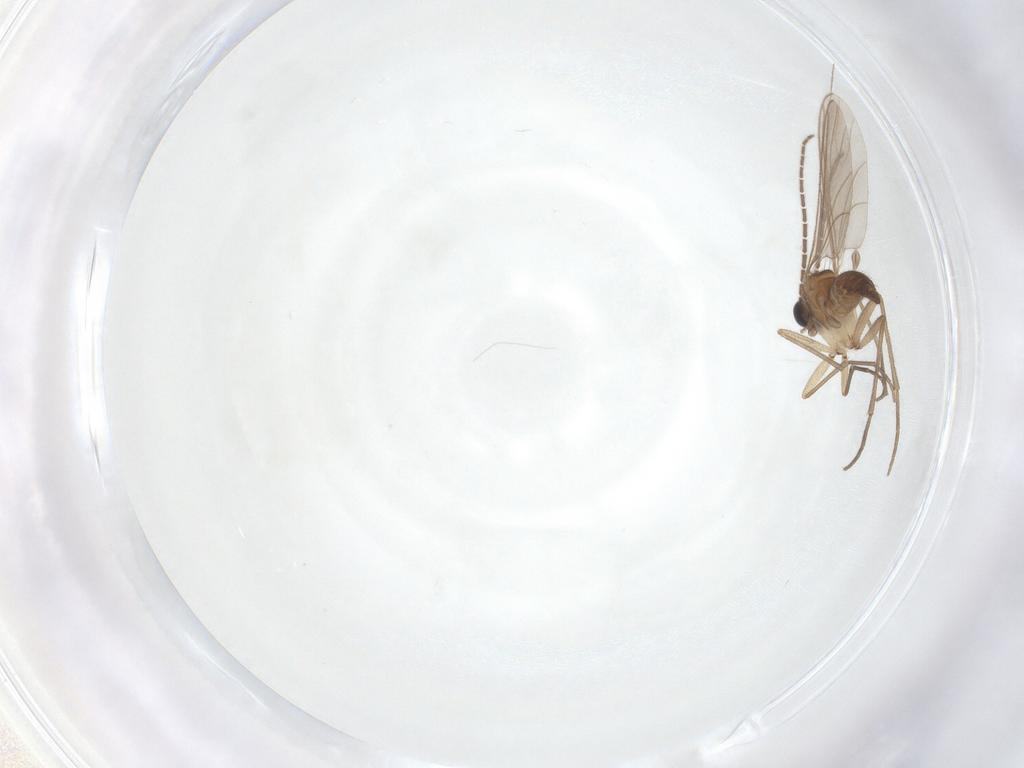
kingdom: Animalia
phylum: Arthropoda
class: Insecta
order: Diptera
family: Sciaridae
